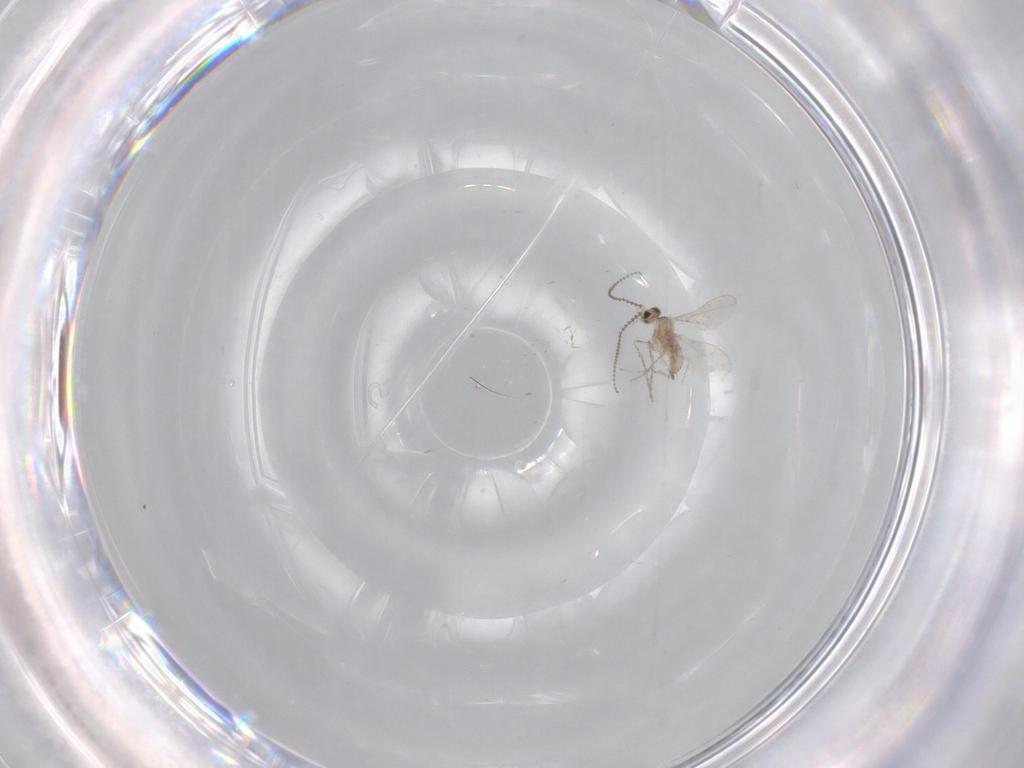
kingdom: Animalia
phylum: Arthropoda
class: Insecta
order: Diptera
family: Cecidomyiidae
